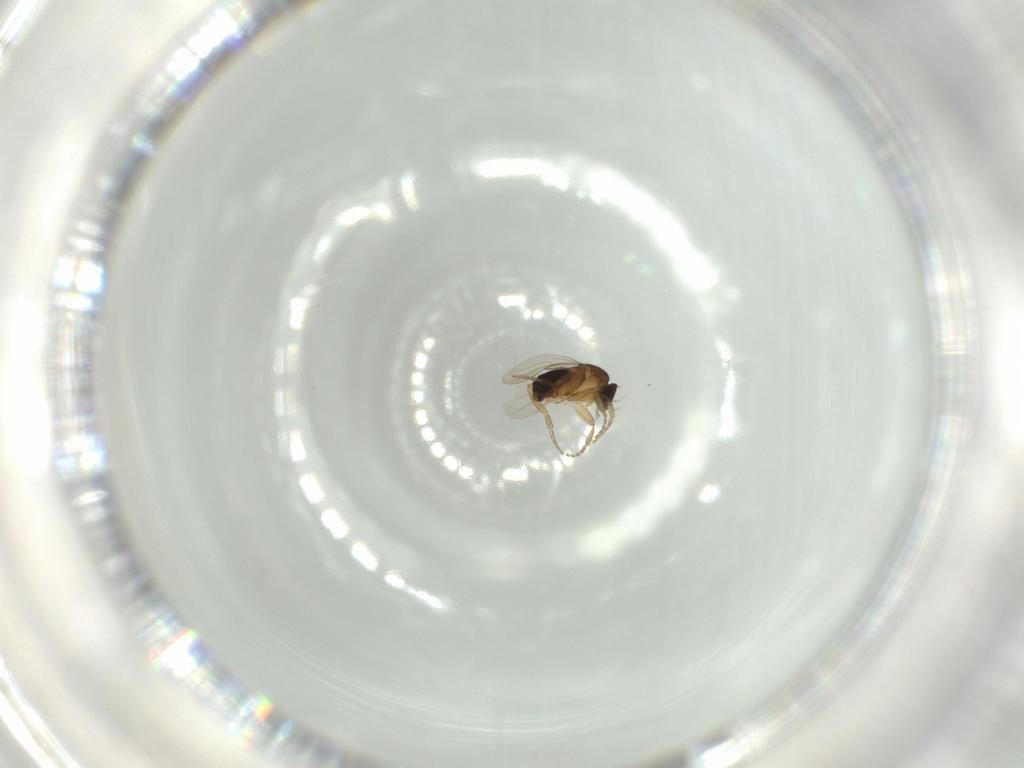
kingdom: Animalia
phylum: Arthropoda
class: Insecta
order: Diptera
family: Phoridae
